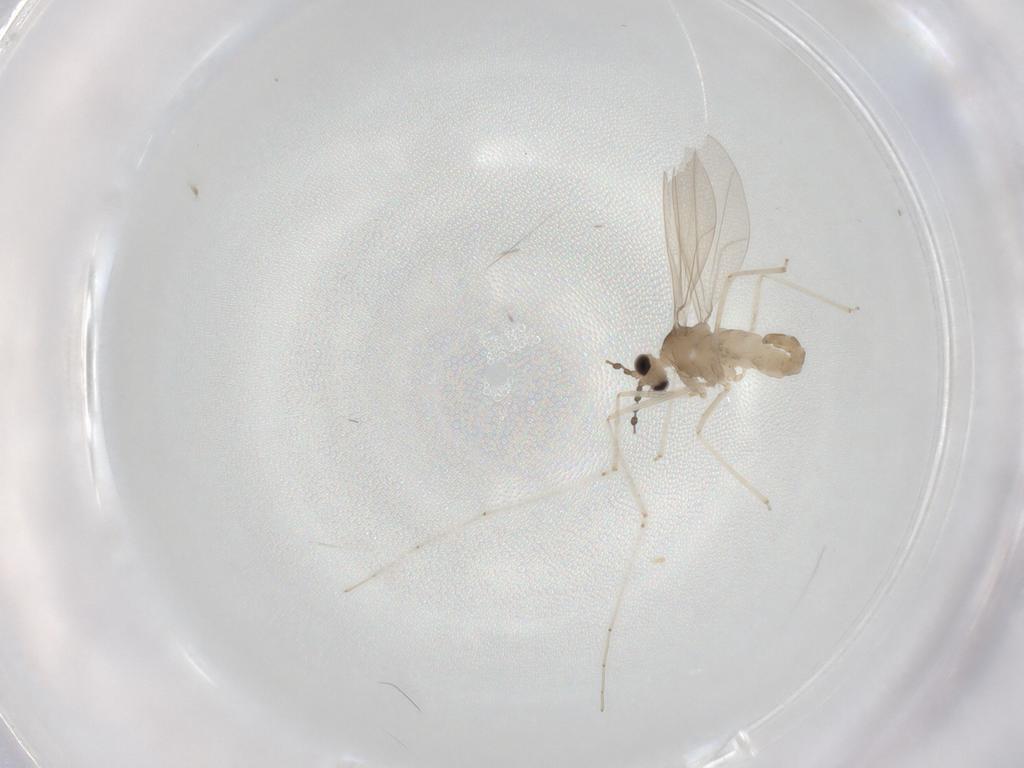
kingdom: Animalia
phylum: Arthropoda
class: Insecta
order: Diptera
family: Cecidomyiidae
